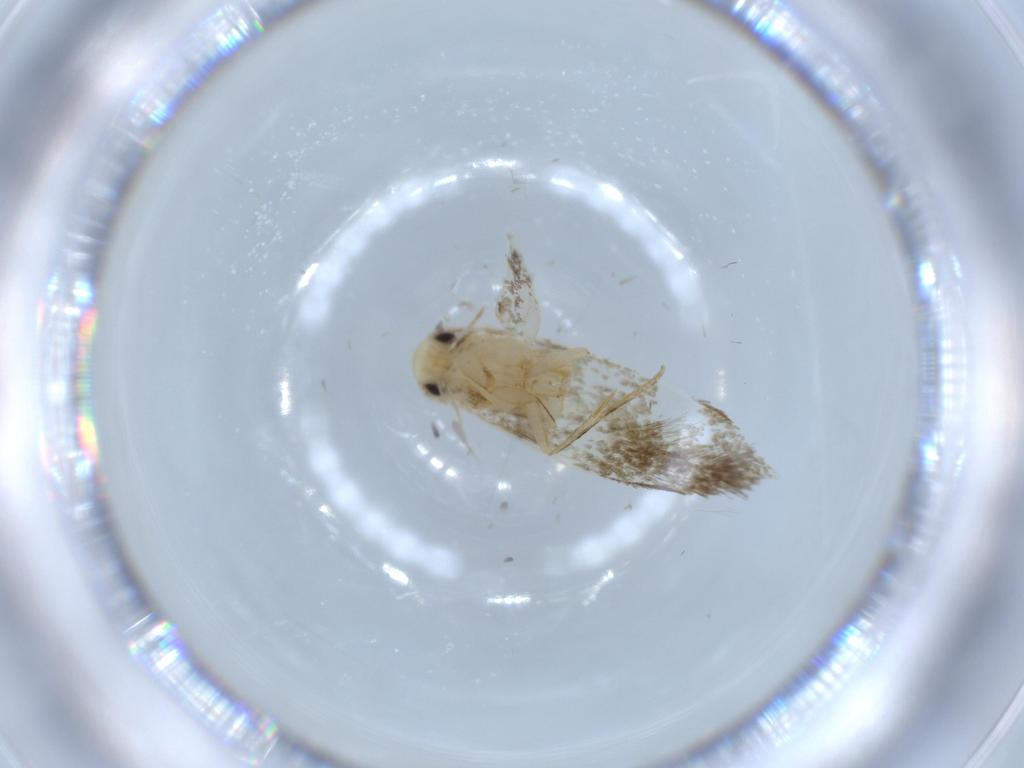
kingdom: Animalia
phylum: Arthropoda
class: Insecta
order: Lepidoptera
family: Tineidae
